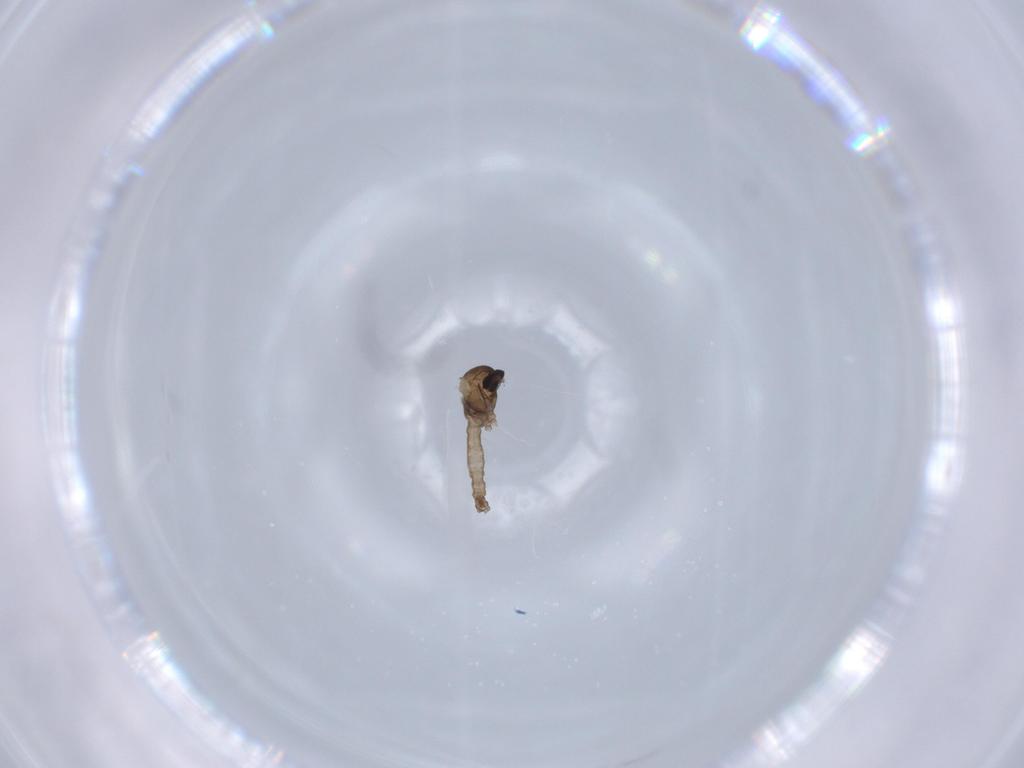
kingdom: Animalia
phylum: Arthropoda
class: Insecta
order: Diptera
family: Cecidomyiidae
